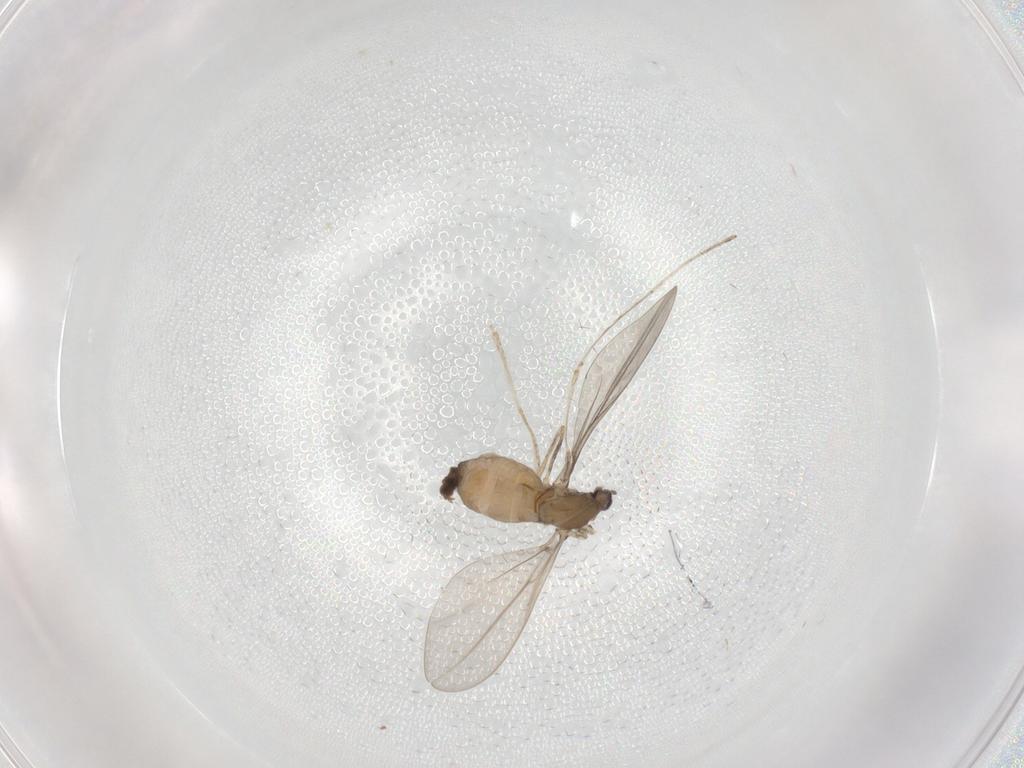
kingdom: Animalia
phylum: Arthropoda
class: Insecta
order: Diptera
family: Cecidomyiidae
